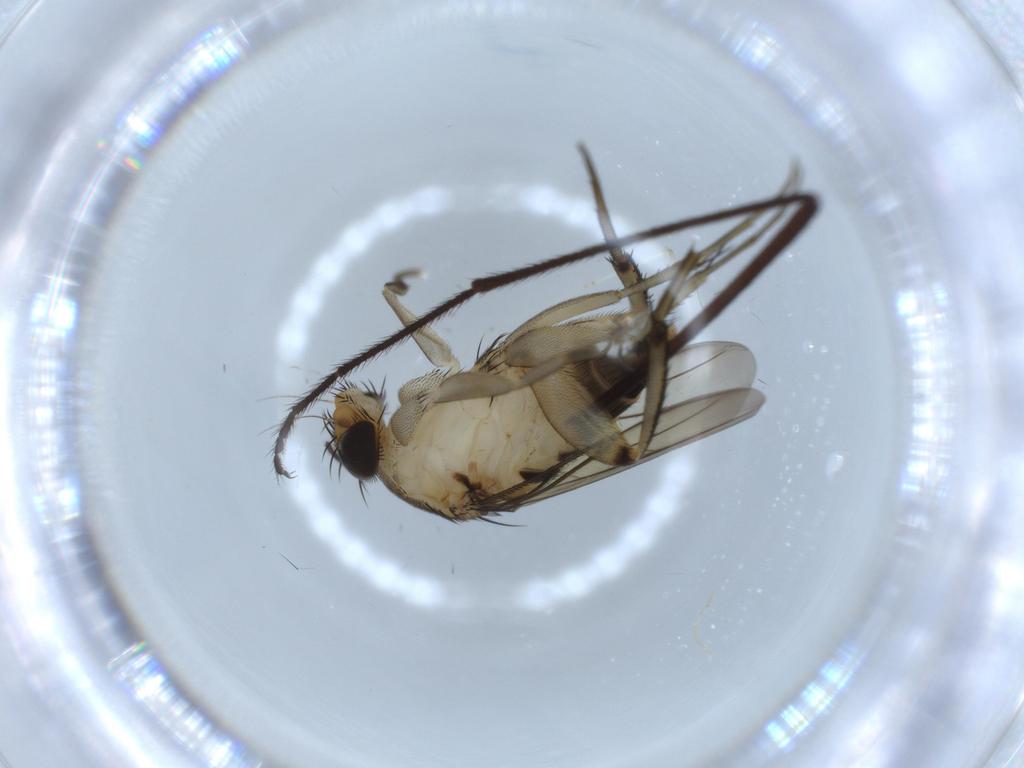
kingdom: Animalia
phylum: Arthropoda
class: Insecta
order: Diptera
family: Phoridae
